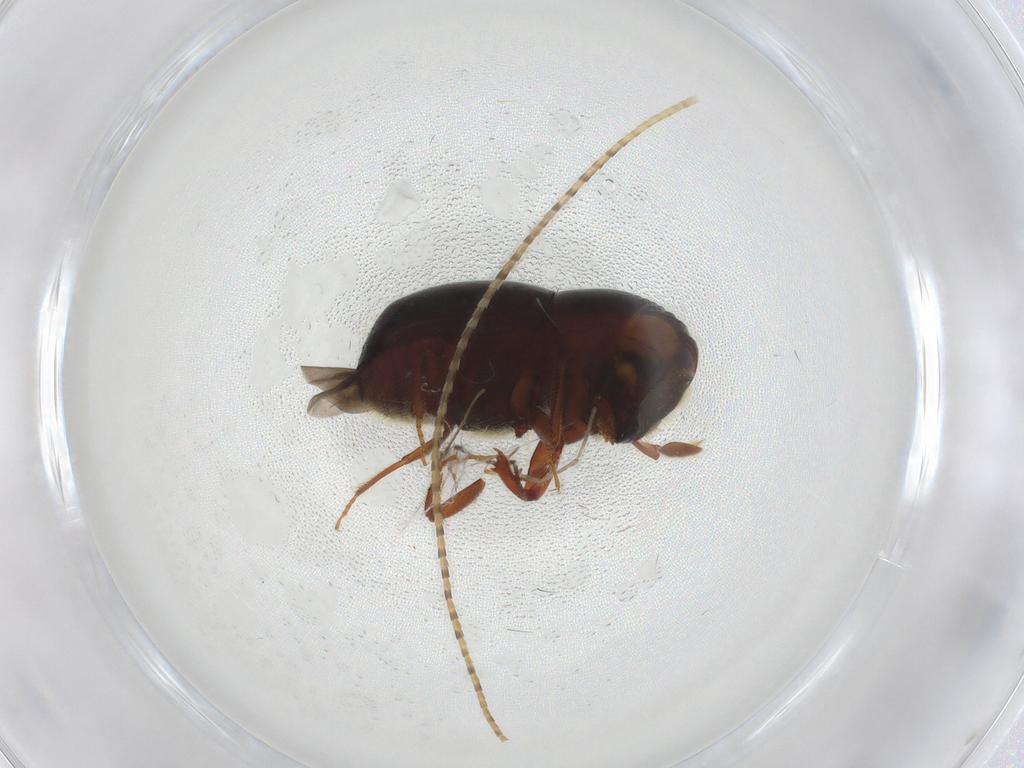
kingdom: Animalia
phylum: Arthropoda
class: Insecta
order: Coleoptera
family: Curculionidae
